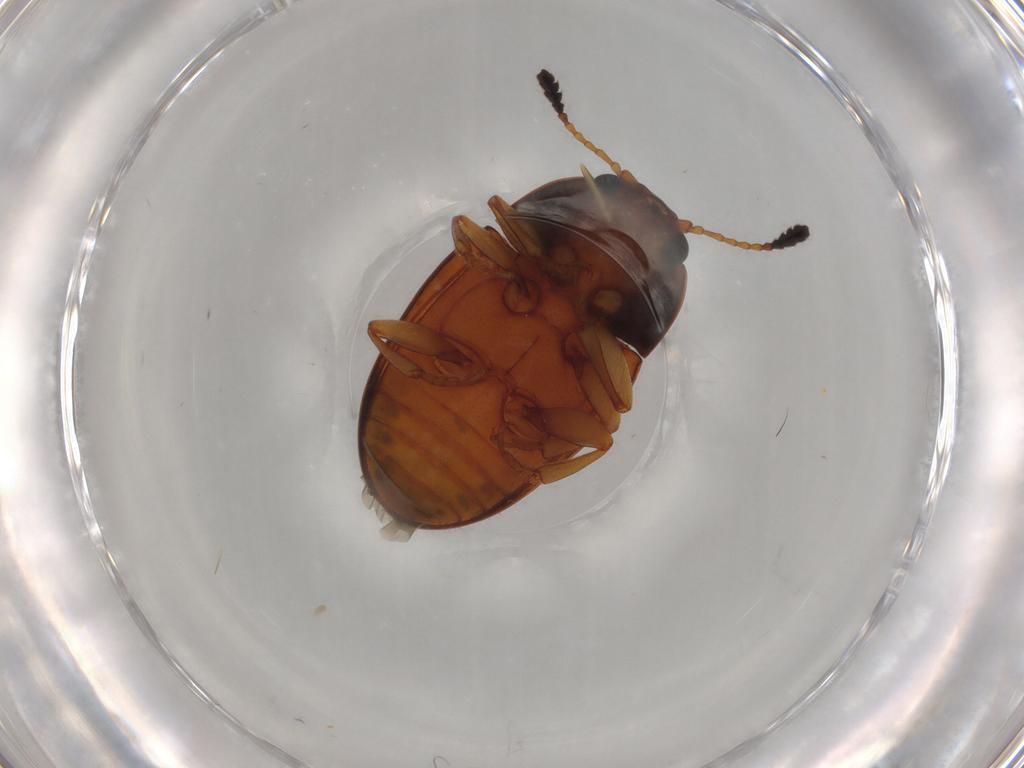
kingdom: Animalia
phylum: Arthropoda
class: Insecta
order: Coleoptera
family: Erotylidae
